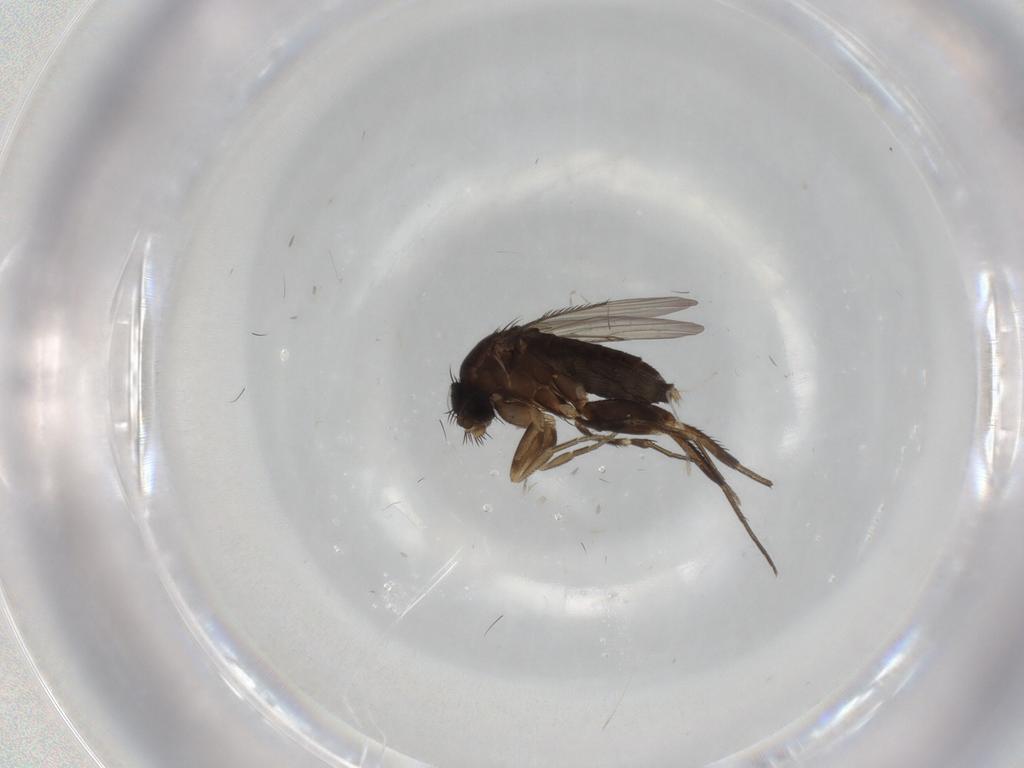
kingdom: Animalia
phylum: Arthropoda
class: Insecta
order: Diptera
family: Phoridae
